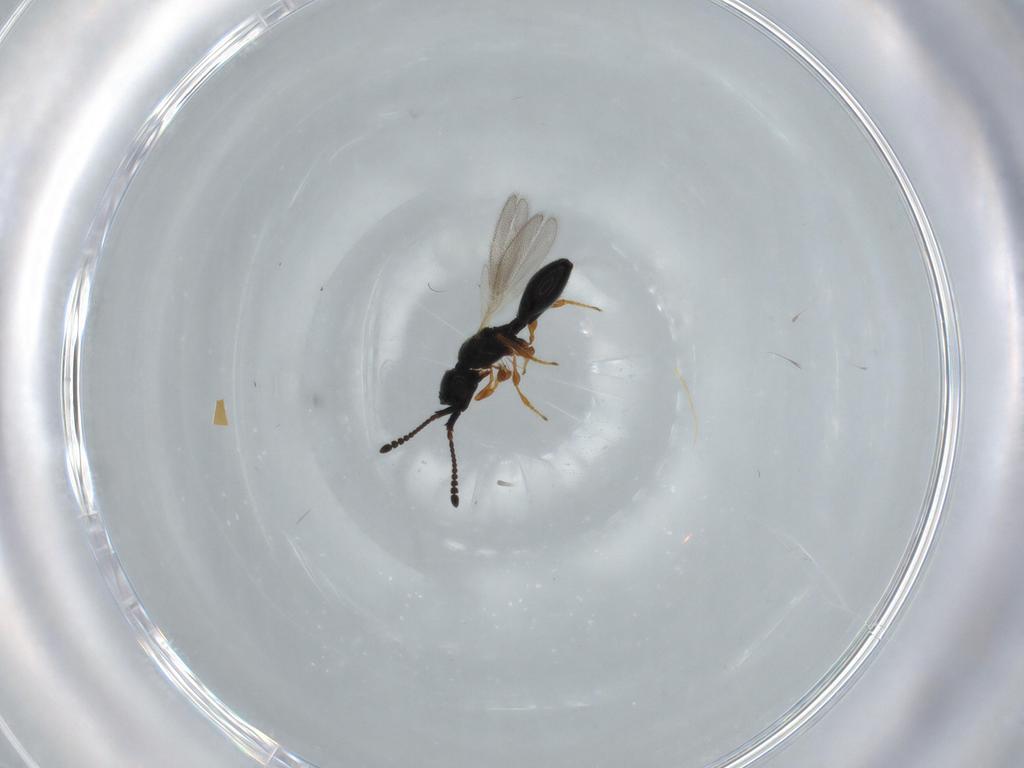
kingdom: Animalia
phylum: Arthropoda
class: Insecta
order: Hymenoptera
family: Diapriidae
